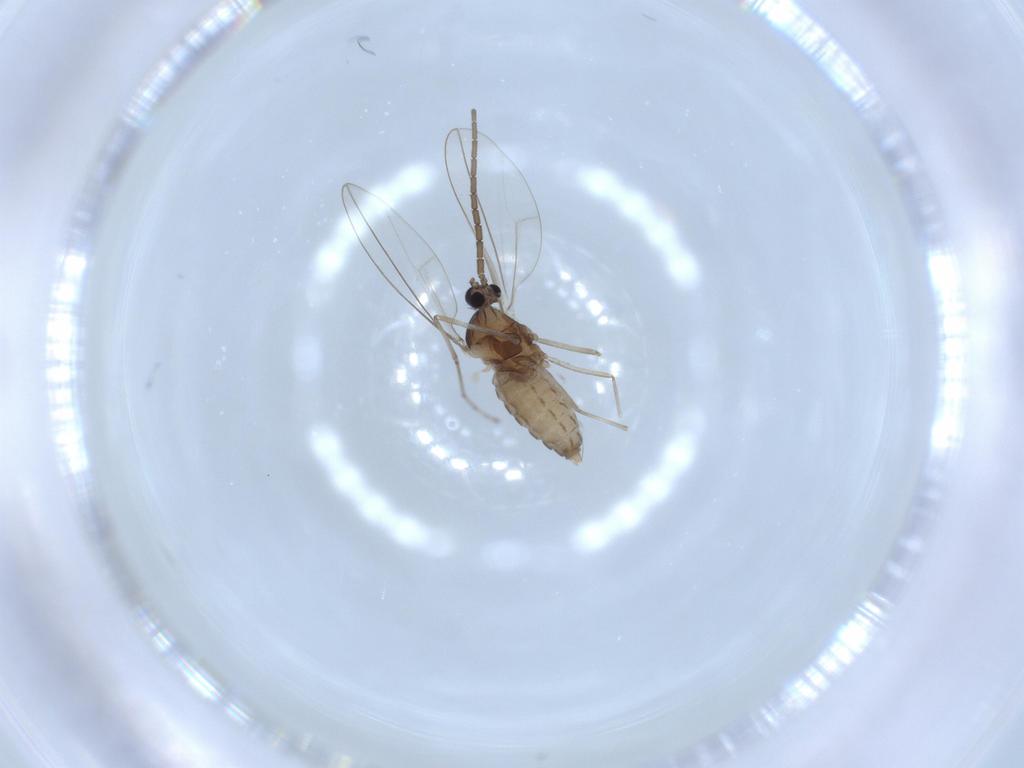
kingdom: Animalia
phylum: Arthropoda
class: Insecta
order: Diptera
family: Cecidomyiidae
